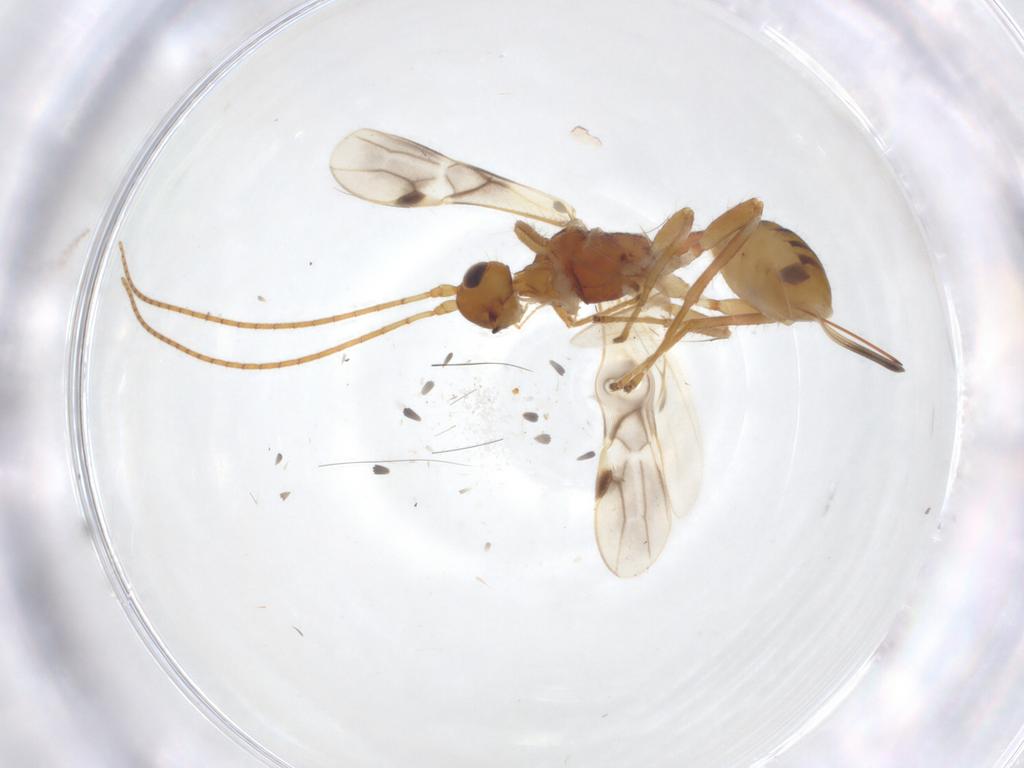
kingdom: Animalia
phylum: Arthropoda
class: Insecta
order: Hymenoptera
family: Braconidae
